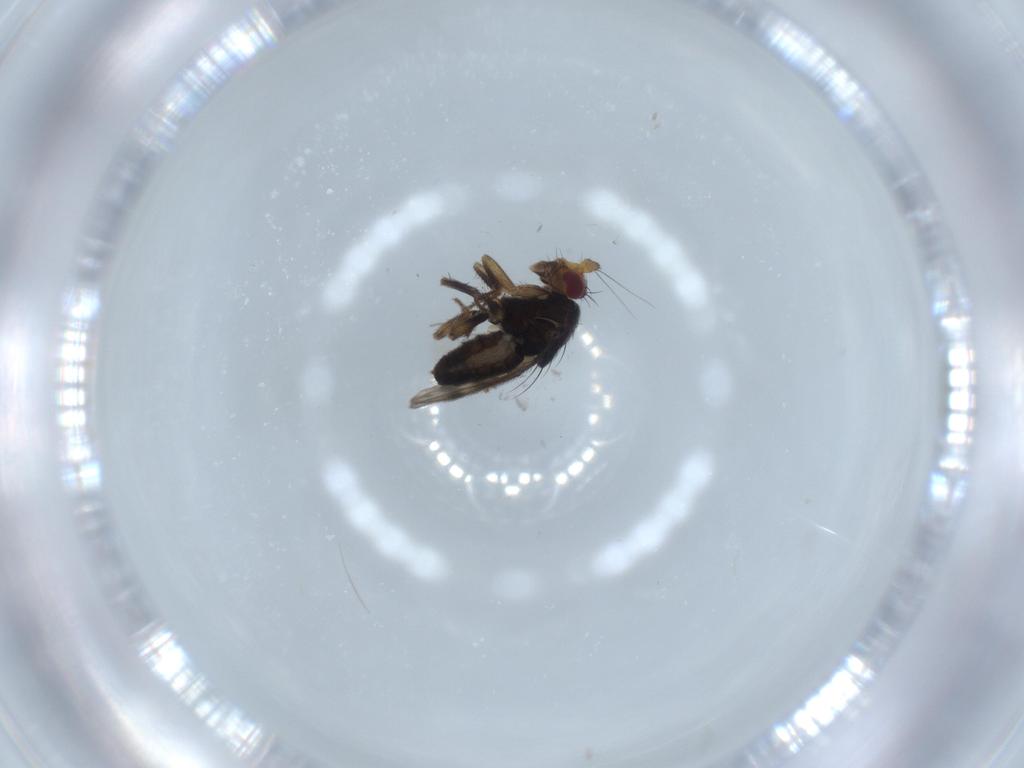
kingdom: Animalia
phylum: Arthropoda
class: Insecta
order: Diptera
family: Sphaeroceridae
